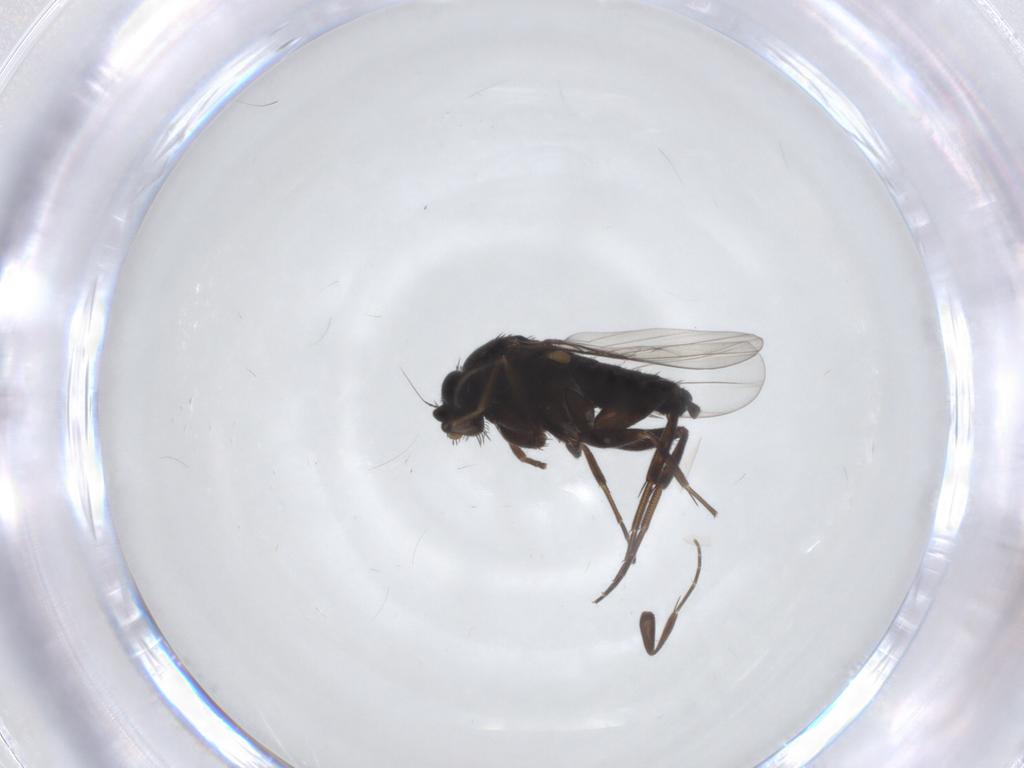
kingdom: Animalia
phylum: Arthropoda
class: Insecta
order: Diptera
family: Phoridae
